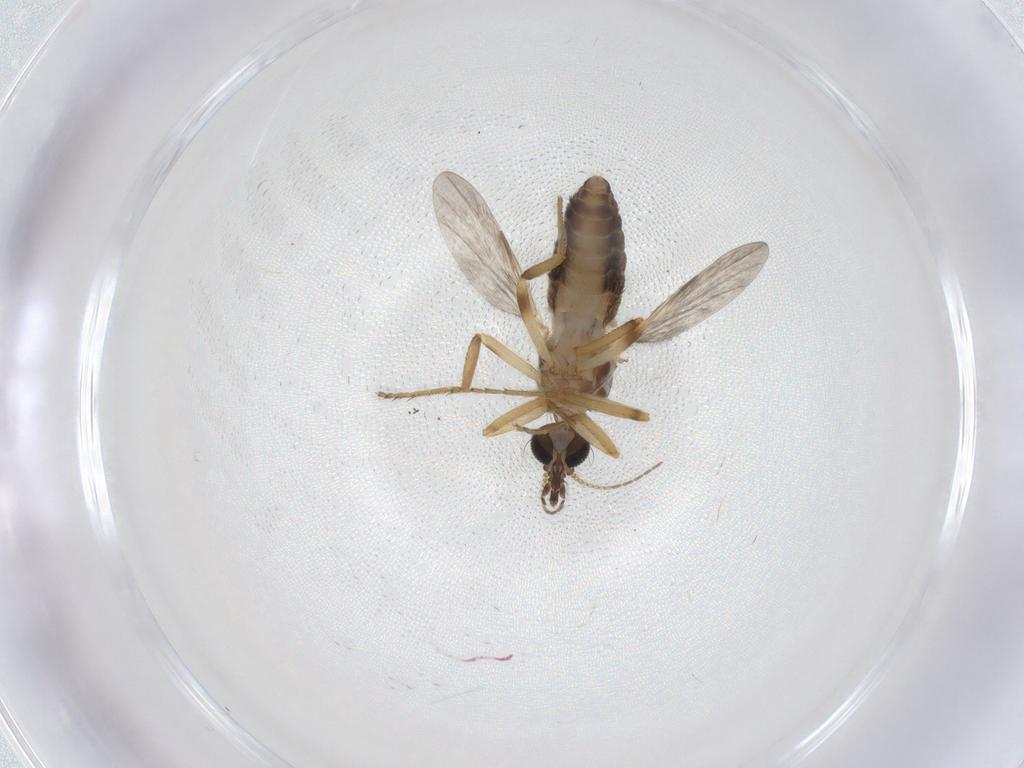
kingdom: Animalia
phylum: Arthropoda
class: Insecta
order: Diptera
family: Ceratopogonidae
